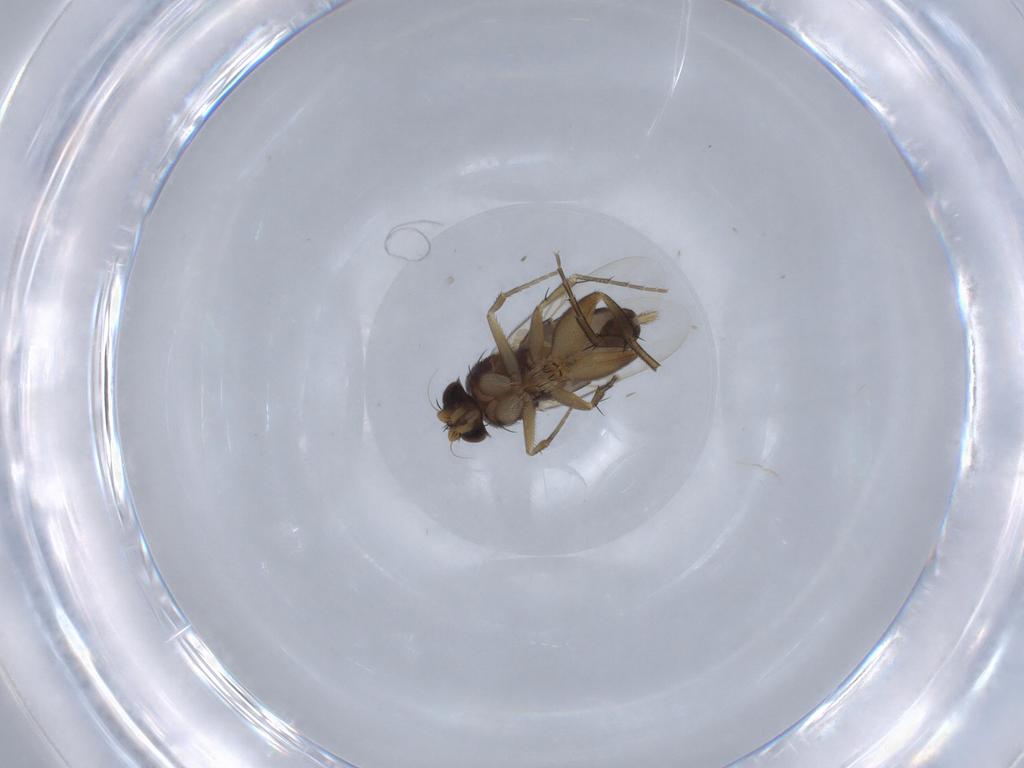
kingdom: Animalia
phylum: Arthropoda
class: Insecta
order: Diptera
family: Phoridae
